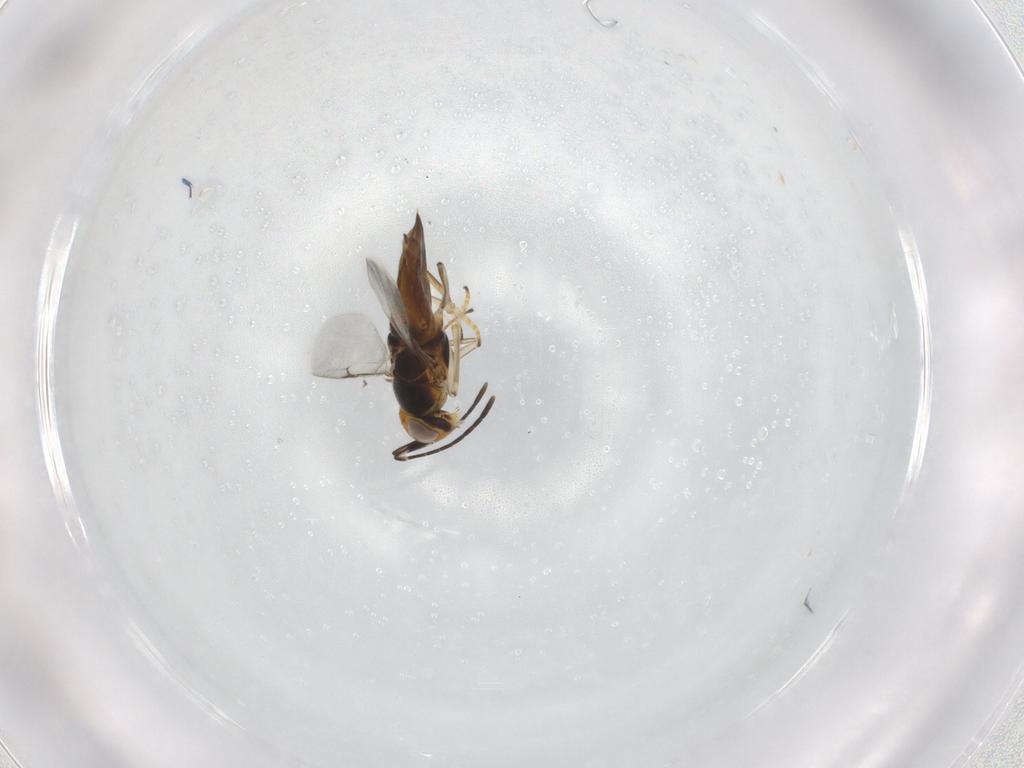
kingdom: Animalia
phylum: Arthropoda
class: Insecta
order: Hymenoptera
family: Encyrtidae
